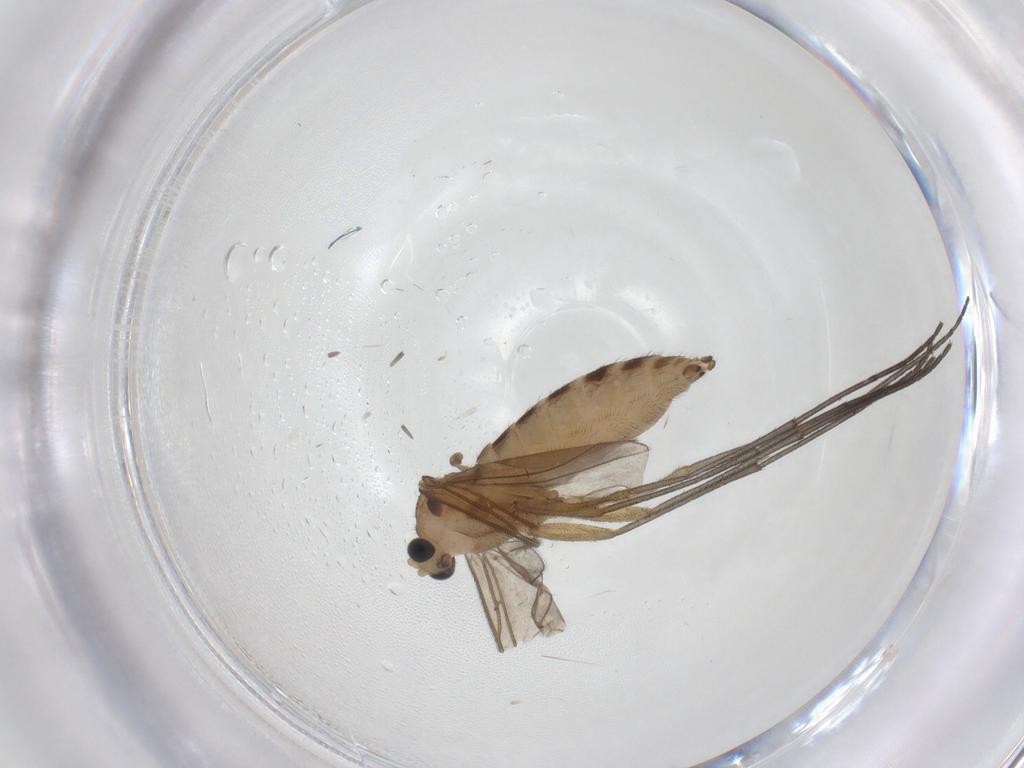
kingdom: Animalia
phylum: Arthropoda
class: Insecta
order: Diptera
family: Sciaridae
